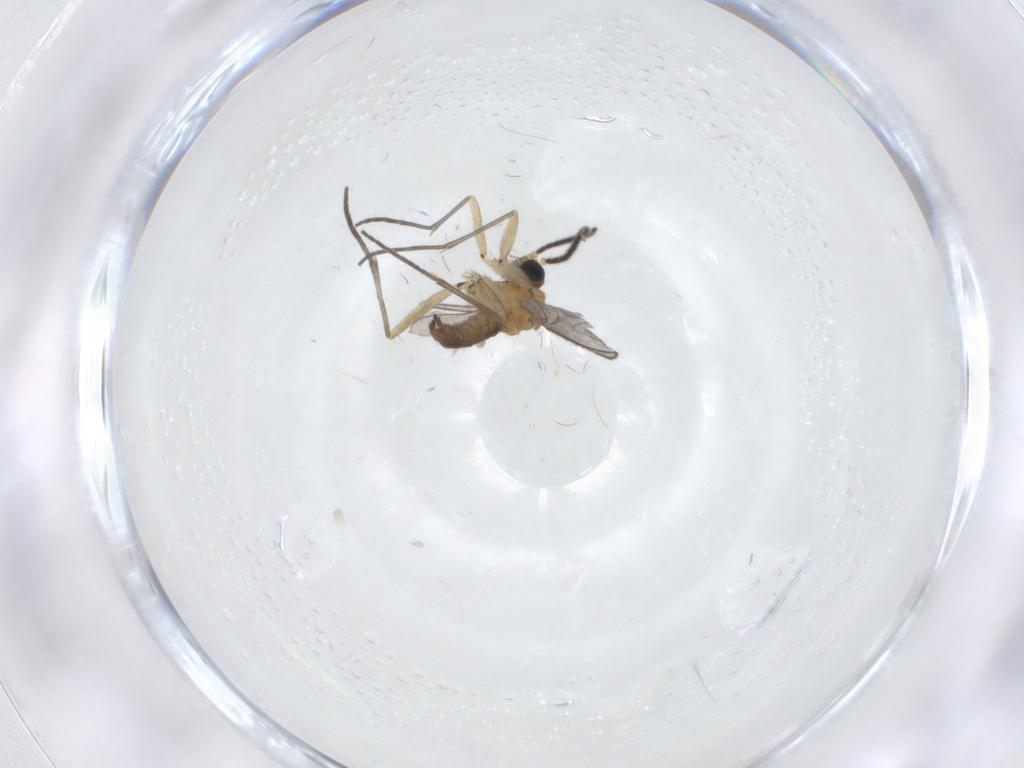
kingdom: Animalia
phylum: Arthropoda
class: Insecta
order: Diptera
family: Sciaridae
